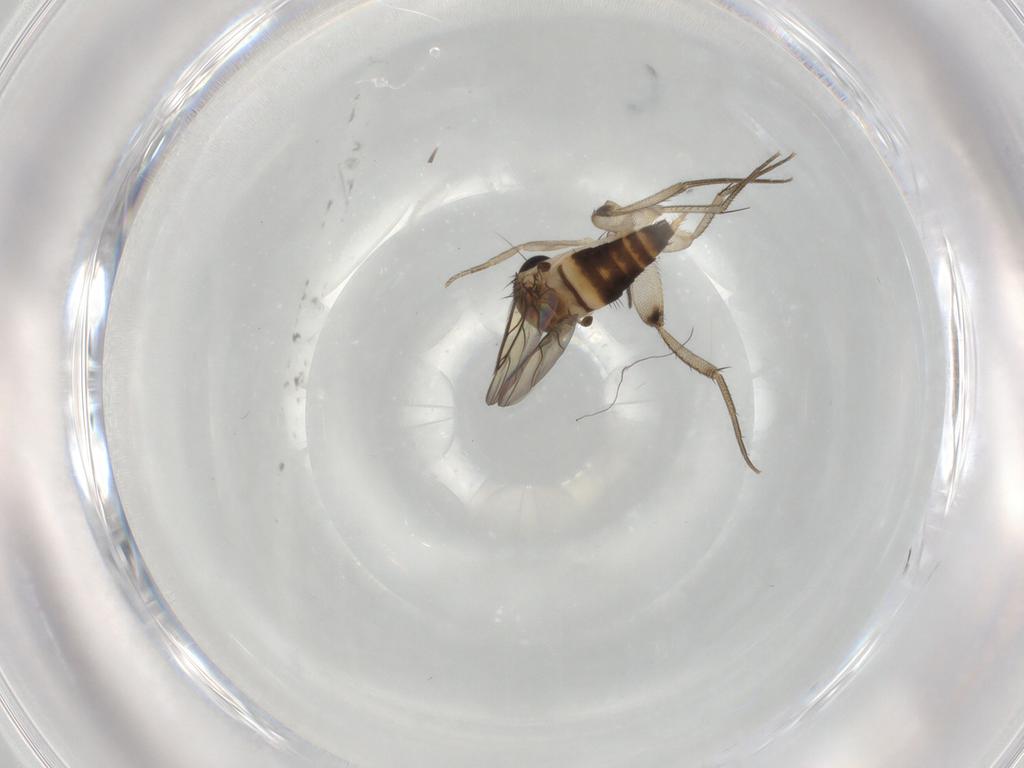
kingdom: Animalia
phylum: Arthropoda
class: Insecta
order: Diptera
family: Phoridae
